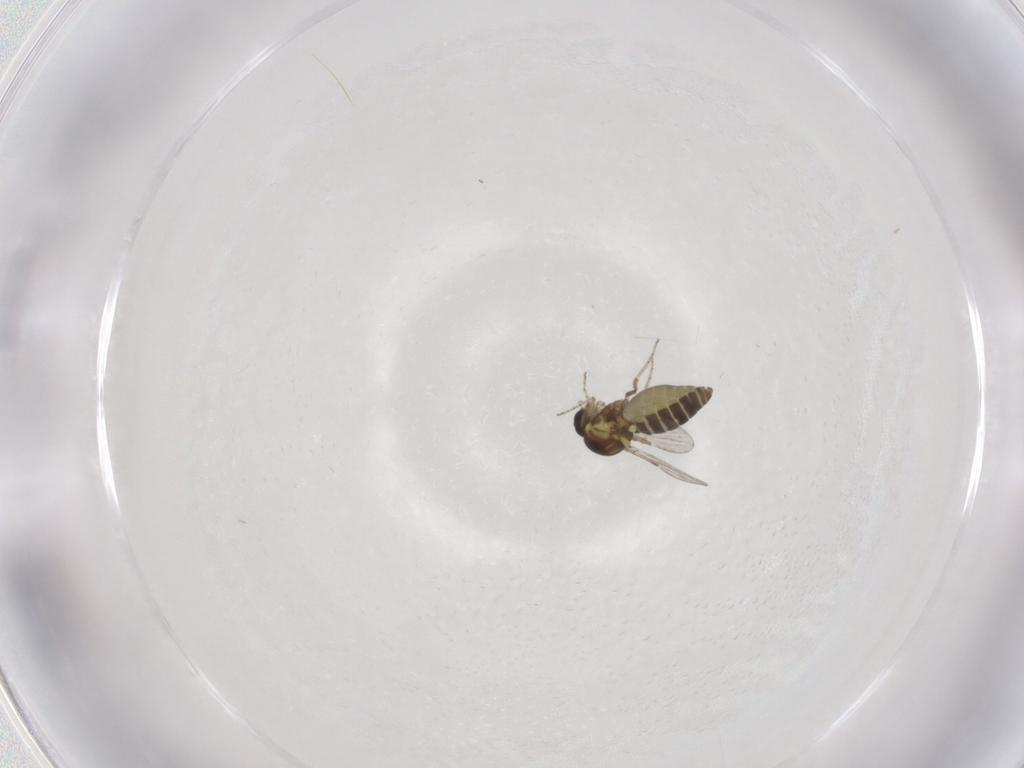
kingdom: Animalia
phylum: Arthropoda
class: Insecta
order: Diptera
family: Ceratopogonidae
